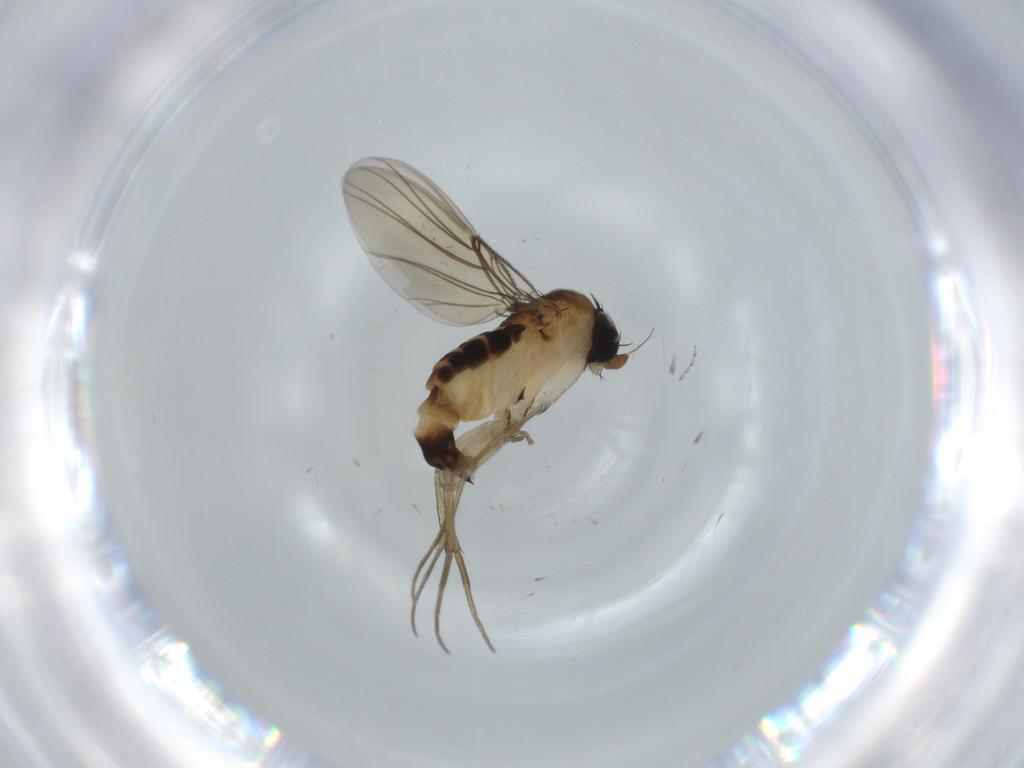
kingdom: Animalia
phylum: Arthropoda
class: Insecta
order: Diptera
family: Phoridae
